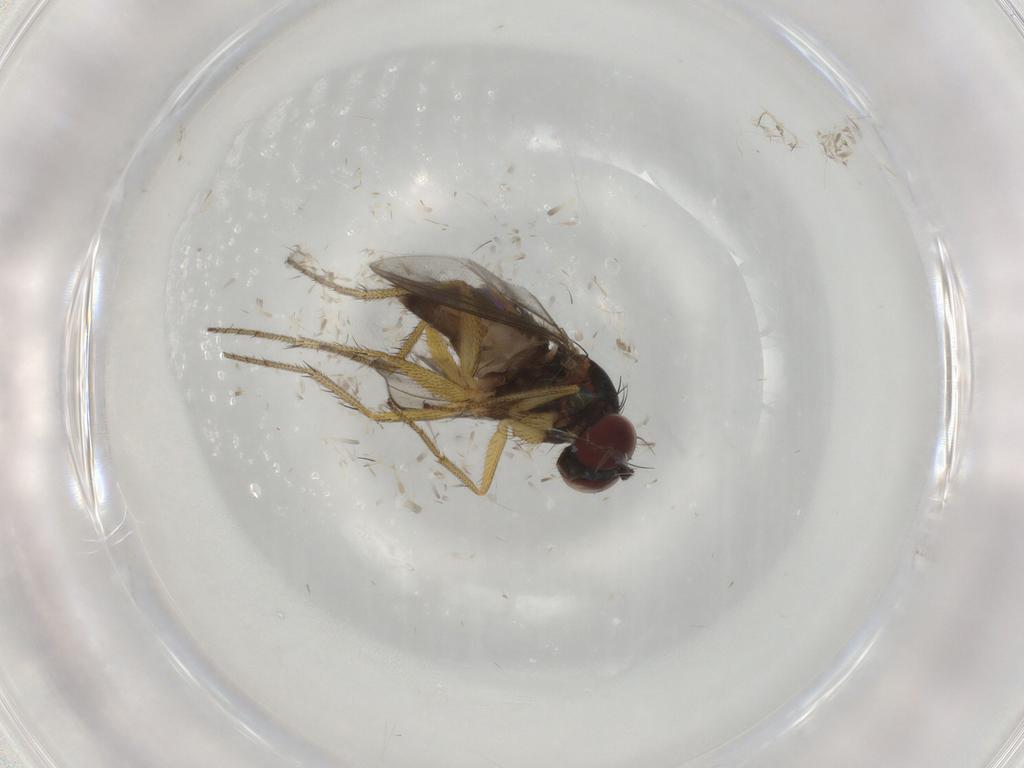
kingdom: Animalia
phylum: Arthropoda
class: Insecta
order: Diptera
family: Dolichopodidae
